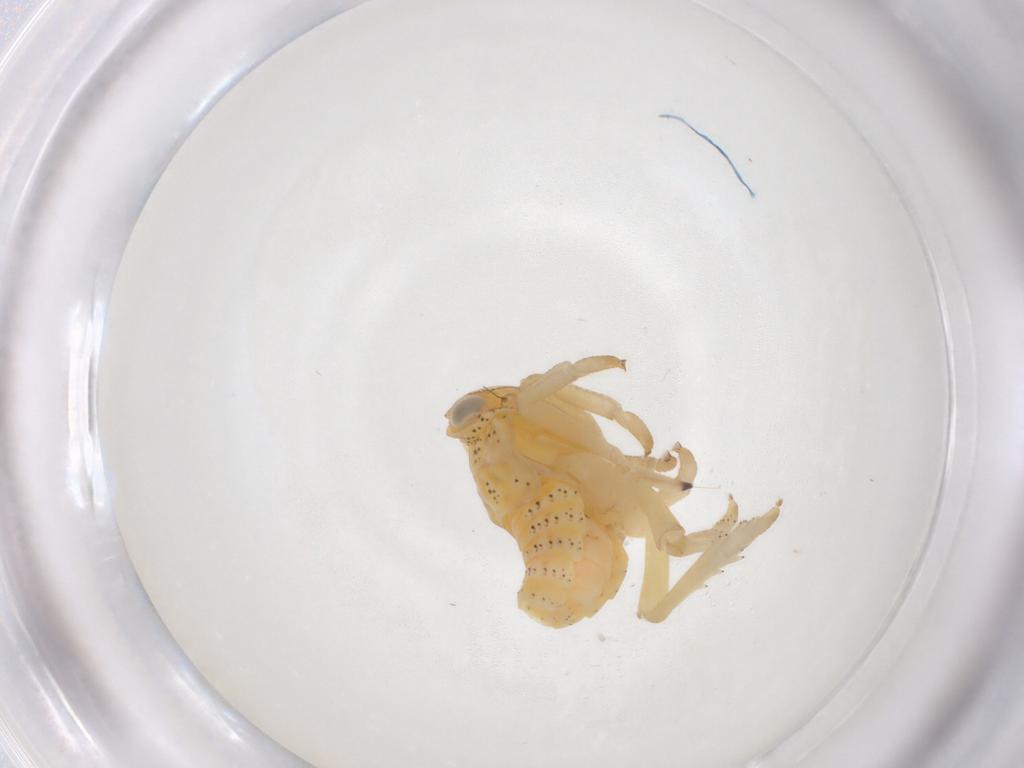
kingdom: Animalia
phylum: Arthropoda
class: Insecta
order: Hemiptera
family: Tropiduchidae
